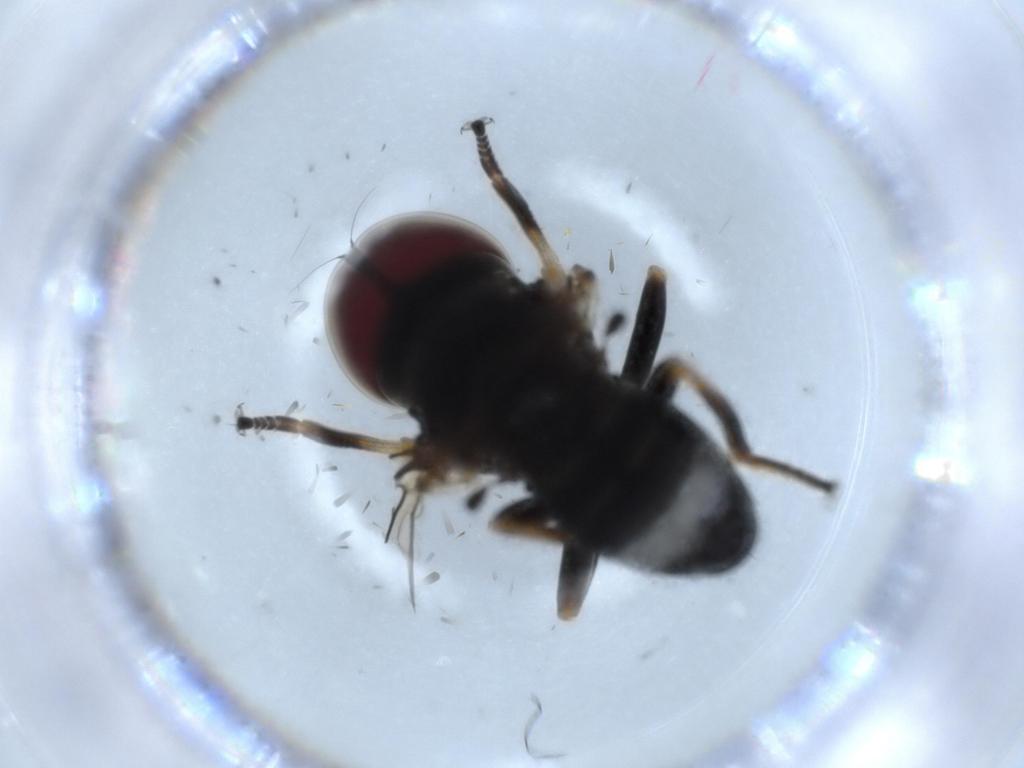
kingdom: Animalia
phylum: Arthropoda
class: Insecta
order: Diptera
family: Pipunculidae
